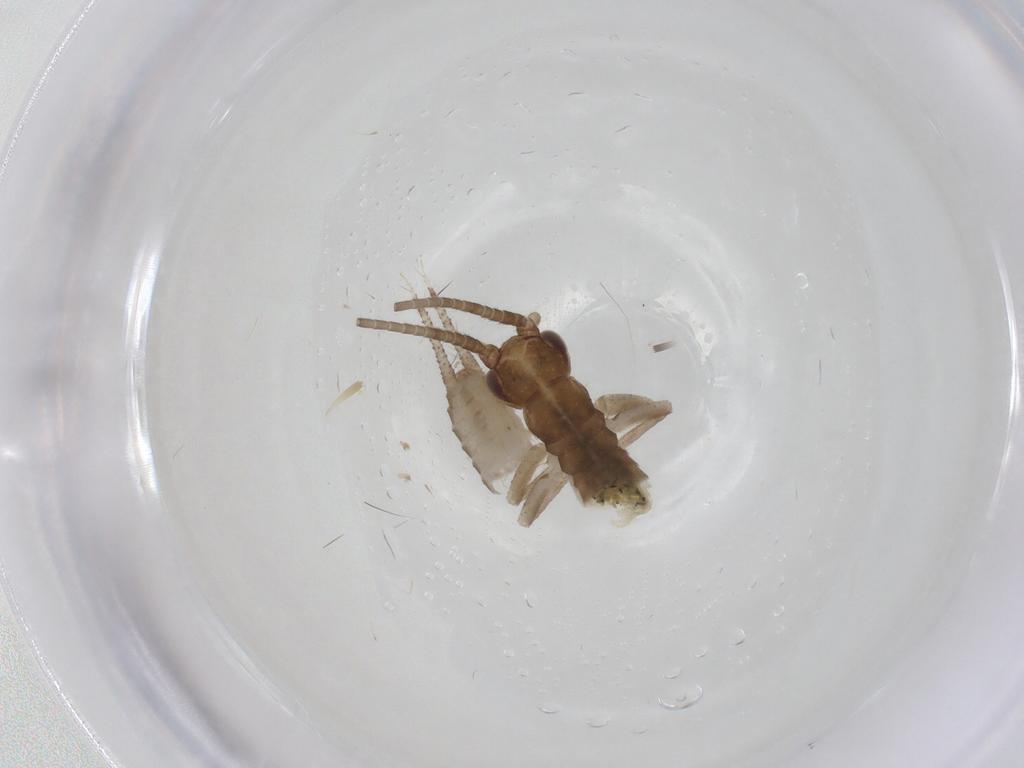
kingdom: Animalia
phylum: Arthropoda
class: Insecta
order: Orthoptera
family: Gryllidae
